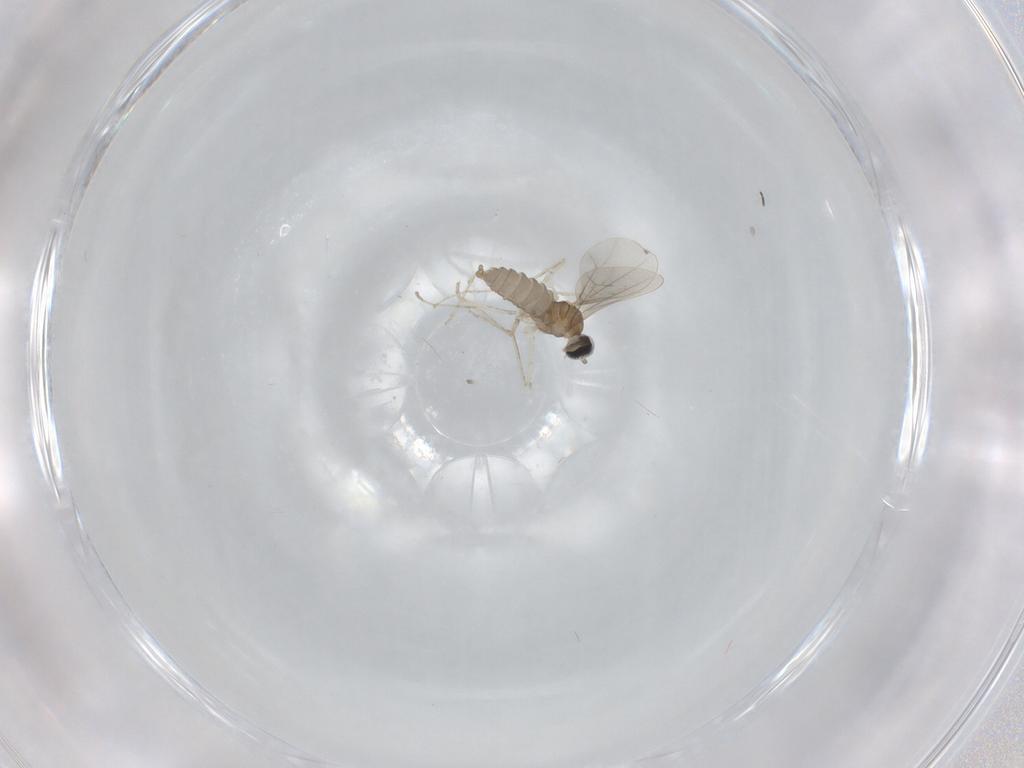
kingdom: Animalia
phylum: Arthropoda
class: Insecta
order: Diptera
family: Cecidomyiidae
